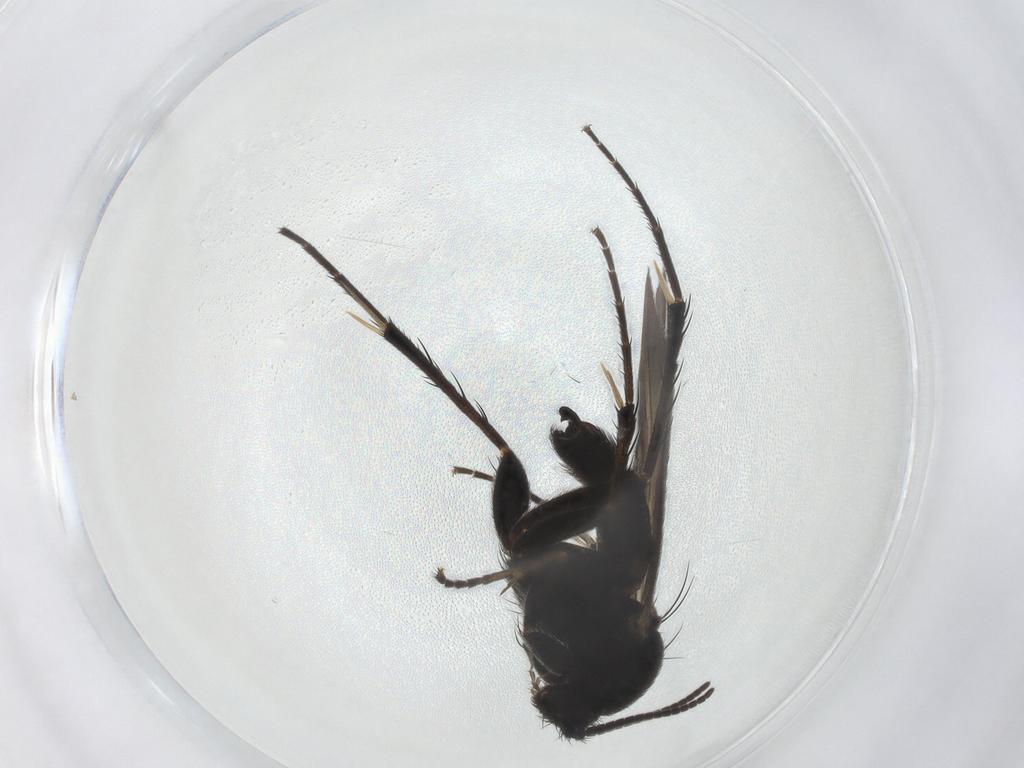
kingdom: Animalia
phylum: Arthropoda
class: Insecta
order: Diptera
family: Mycetophilidae
